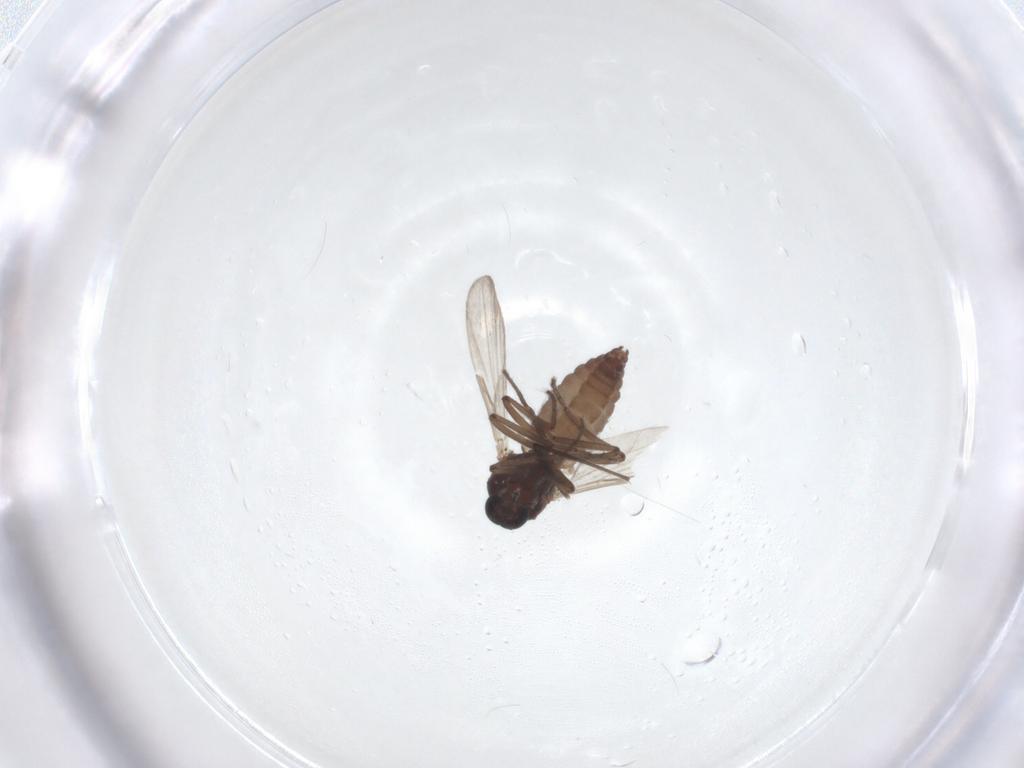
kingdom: Animalia
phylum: Arthropoda
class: Insecta
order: Diptera
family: Ceratopogonidae
